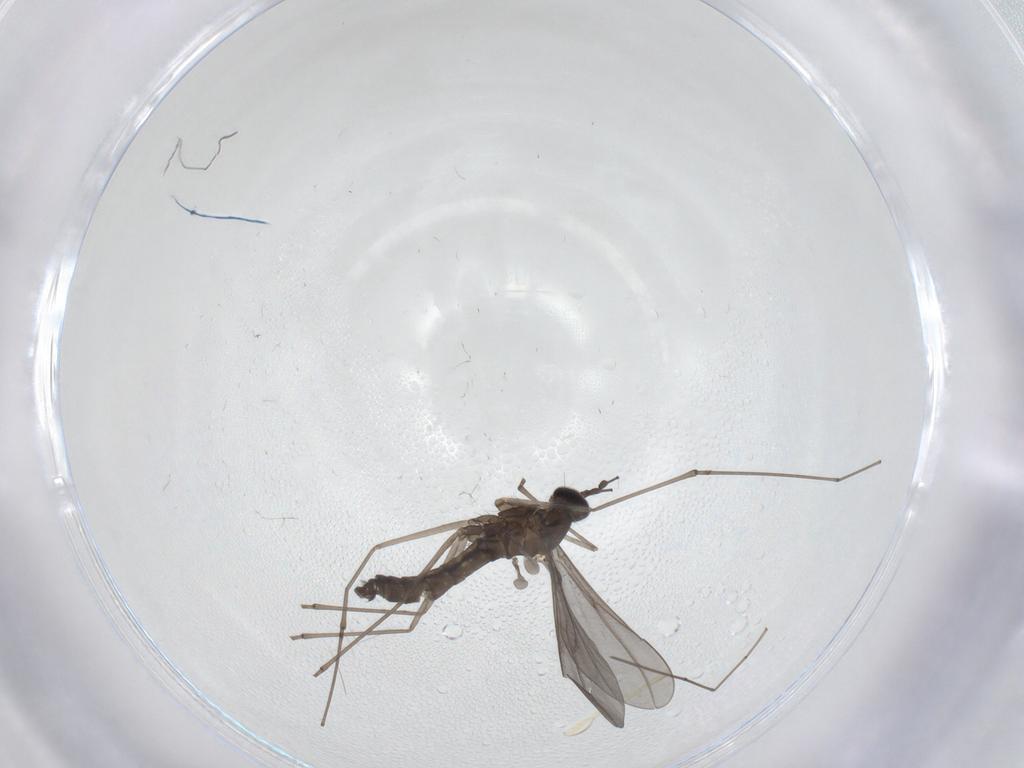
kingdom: Animalia
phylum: Arthropoda
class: Insecta
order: Diptera
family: Cecidomyiidae
